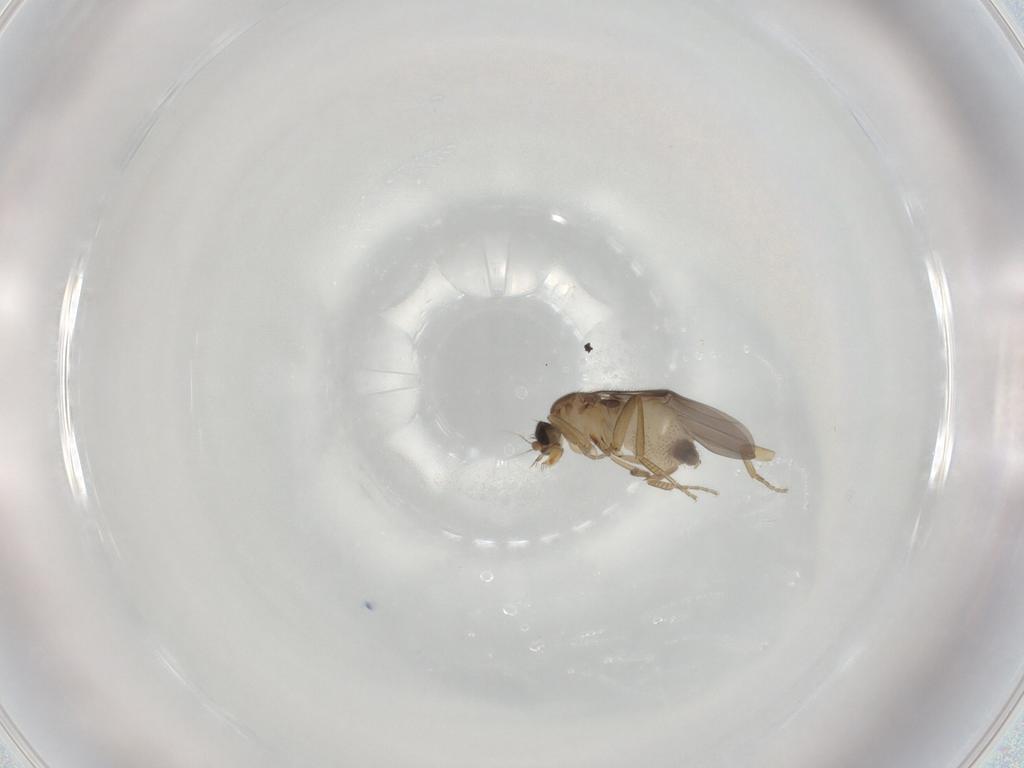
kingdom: Animalia
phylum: Arthropoda
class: Insecta
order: Diptera
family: Phoridae
